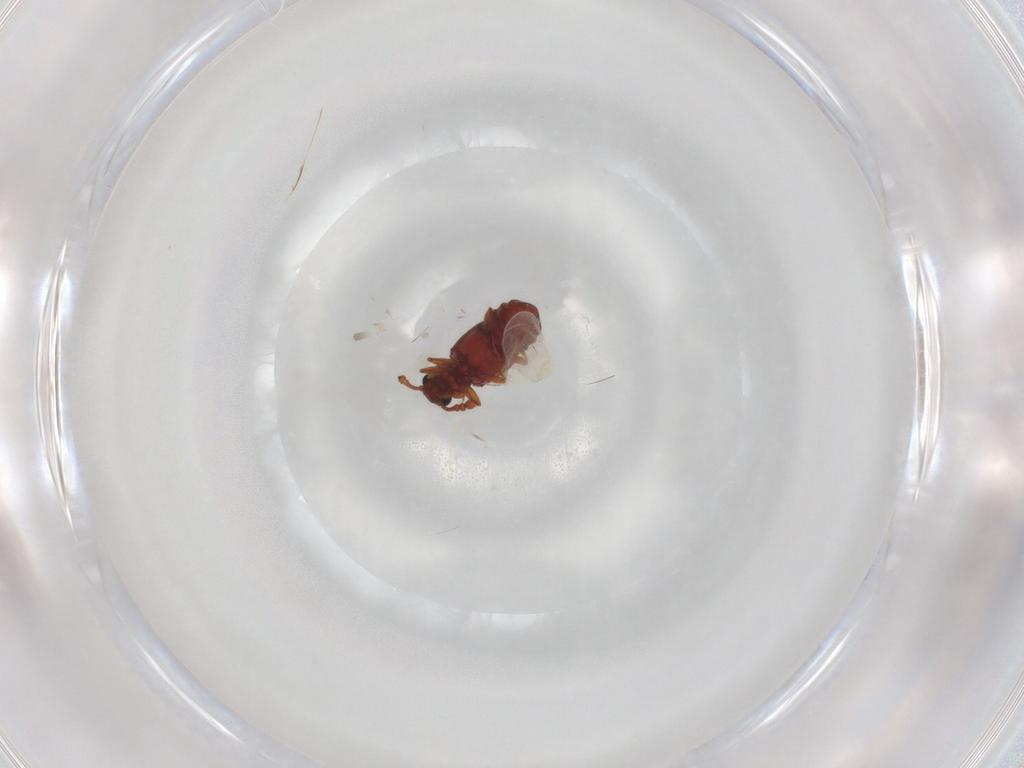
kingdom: Animalia
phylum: Arthropoda
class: Insecta
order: Coleoptera
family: Staphylinidae
